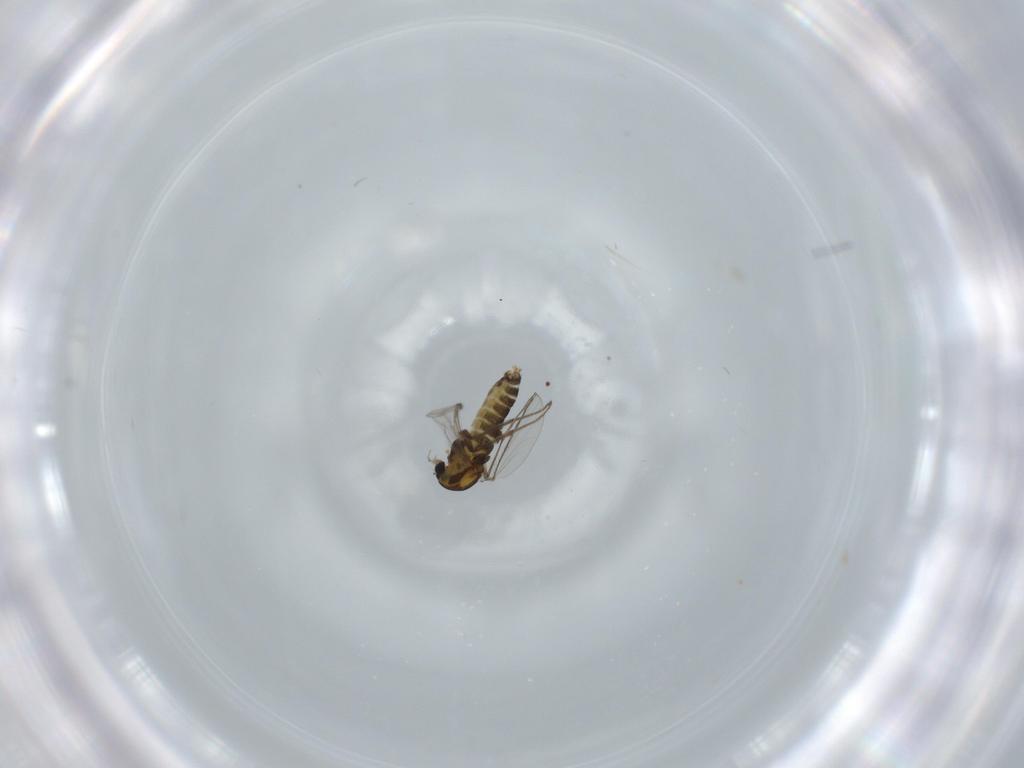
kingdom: Animalia
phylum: Arthropoda
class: Insecta
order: Diptera
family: Chironomidae
